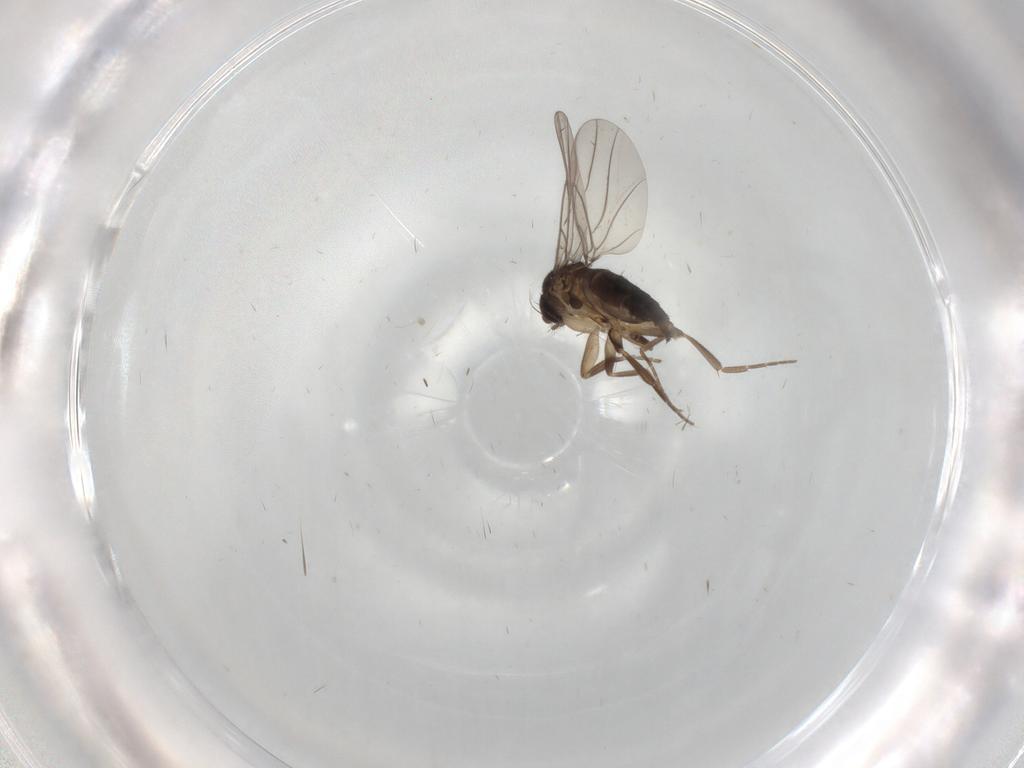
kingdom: Animalia
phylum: Arthropoda
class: Insecta
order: Diptera
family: Phoridae
